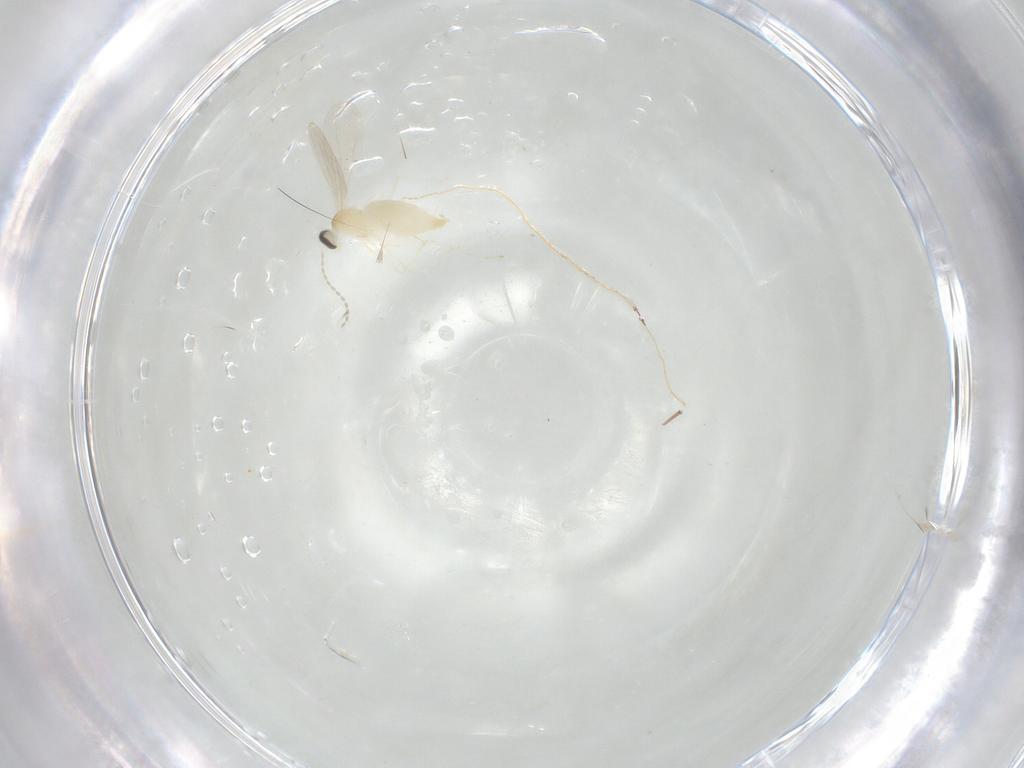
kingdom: Animalia
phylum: Arthropoda
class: Insecta
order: Diptera
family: Cecidomyiidae
